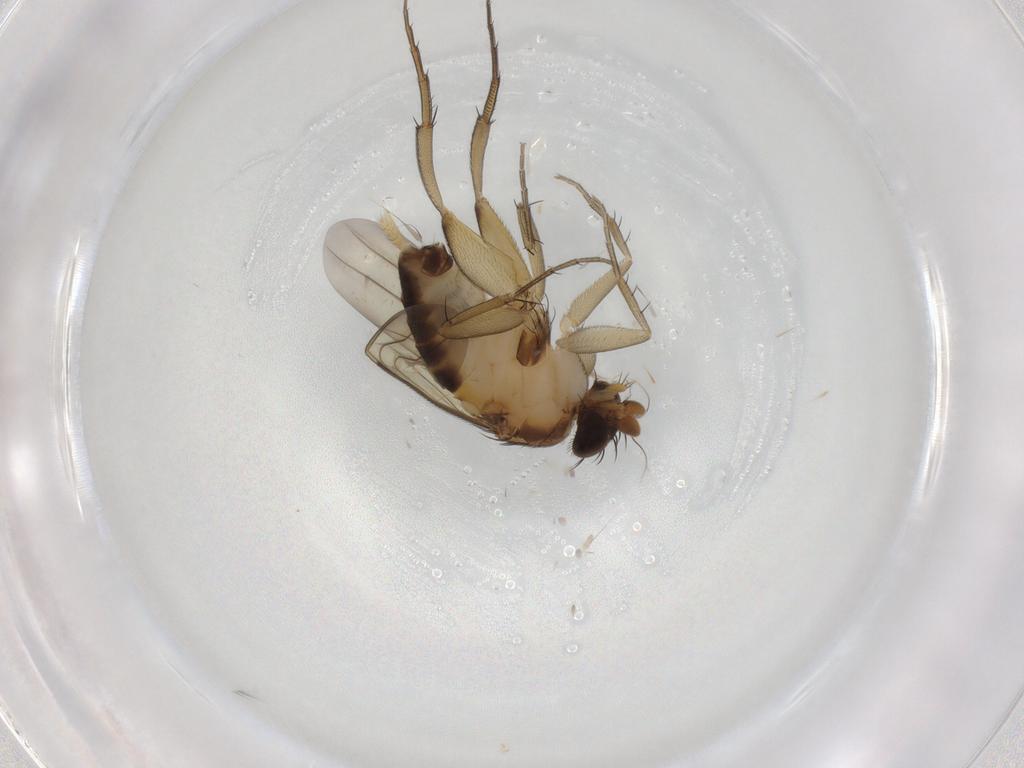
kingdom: Animalia
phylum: Arthropoda
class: Insecta
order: Diptera
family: Phoridae
